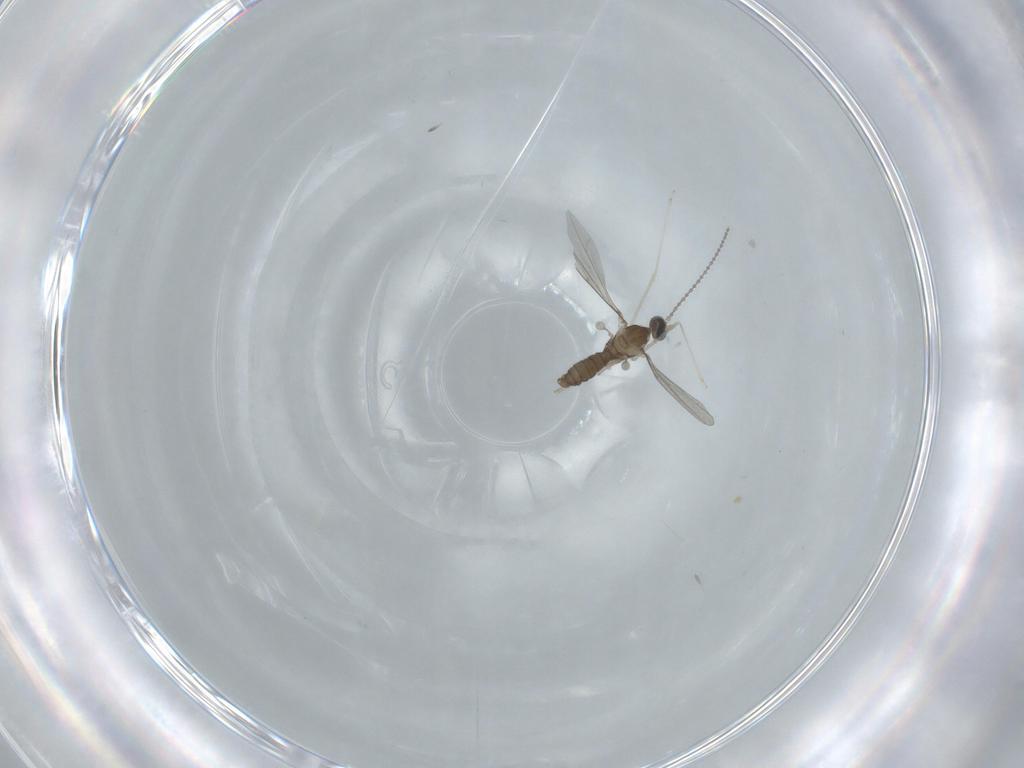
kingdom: Animalia
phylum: Arthropoda
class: Insecta
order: Diptera
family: Cecidomyiidae
